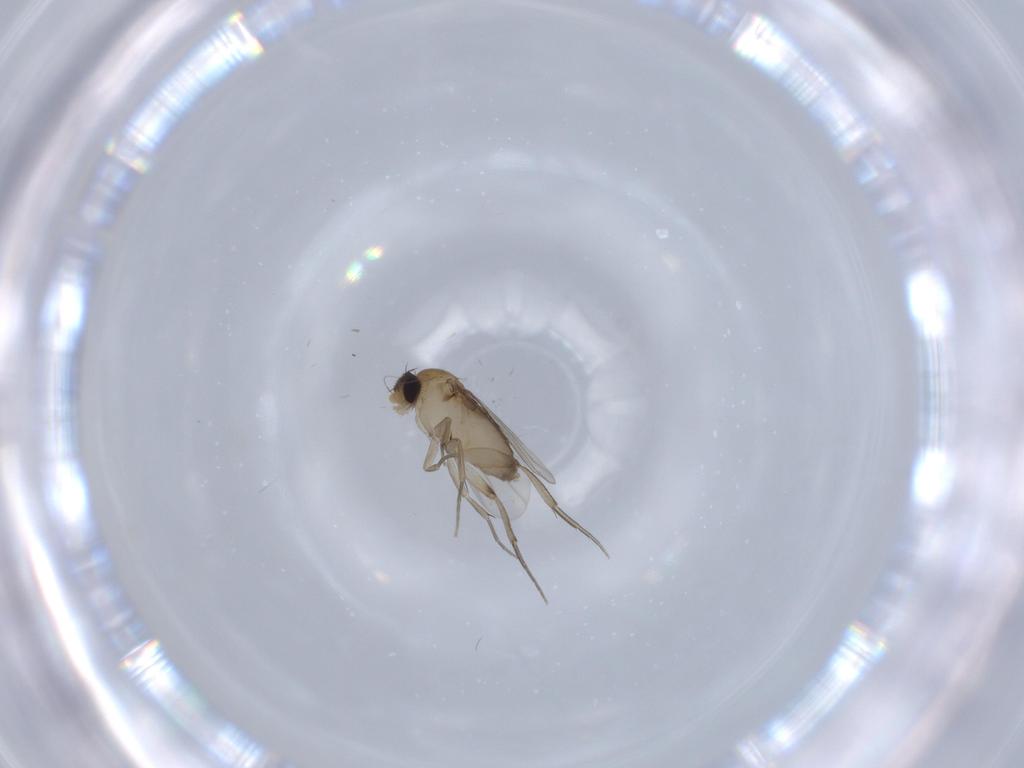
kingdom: Animalia
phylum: Arthropoda
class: Insecta
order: Diptera
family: Phoridae
